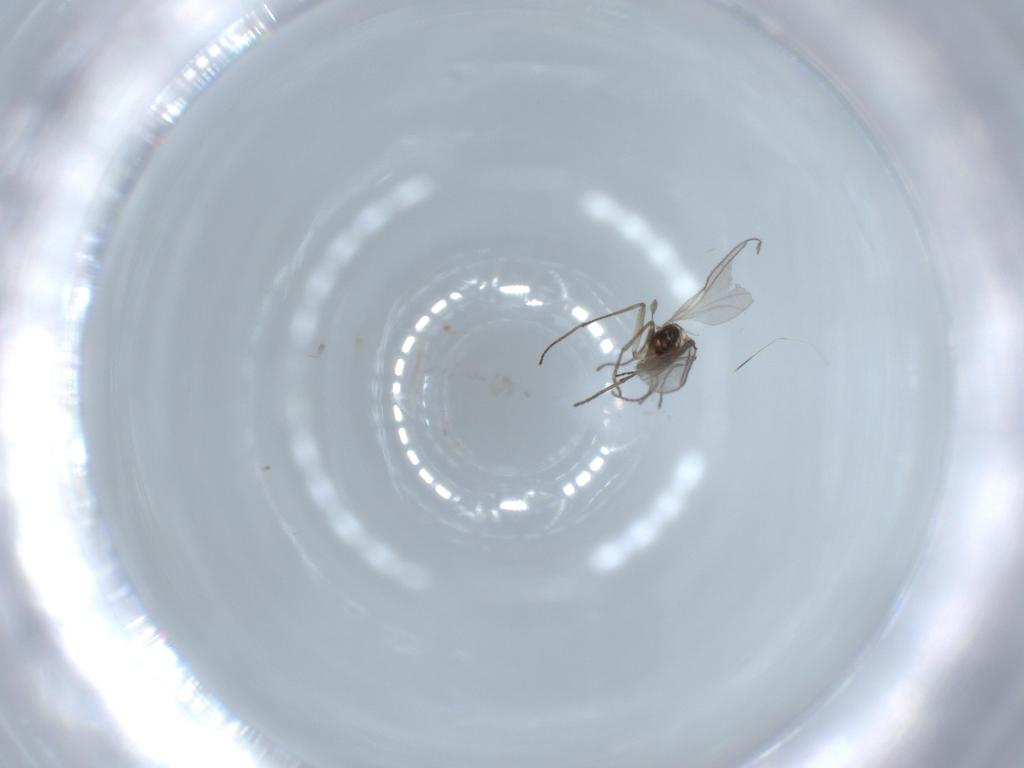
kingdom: Animalia
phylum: Arthropoda
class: Insecta
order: Diptera
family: Sciaridae
